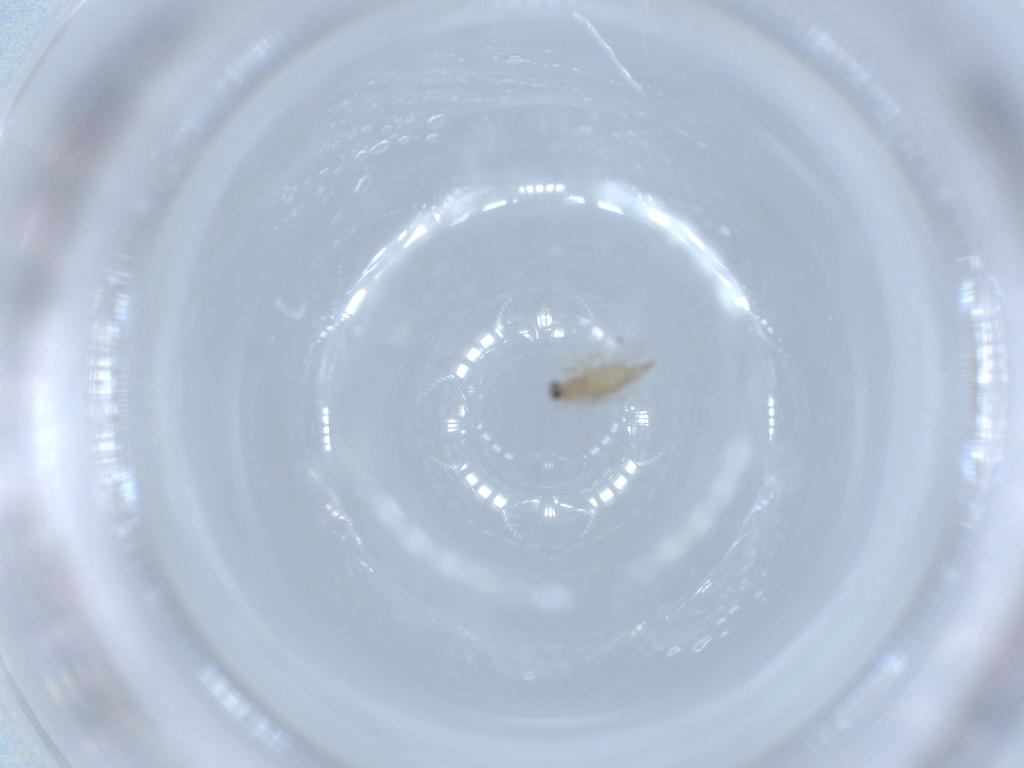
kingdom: Animalia
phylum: Arthropoda
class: Insecta
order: Diptera
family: Cecidomyiidae
